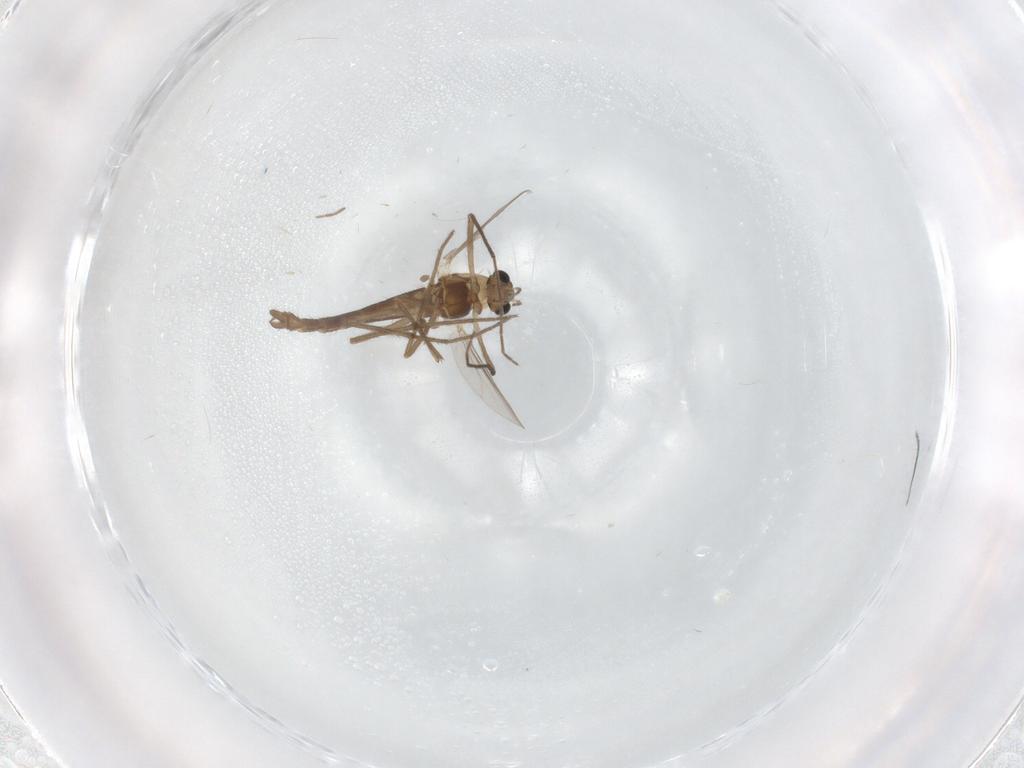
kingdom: Animalia
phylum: Arthropoda
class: Insecta
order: Diptera
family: Chironomidae
